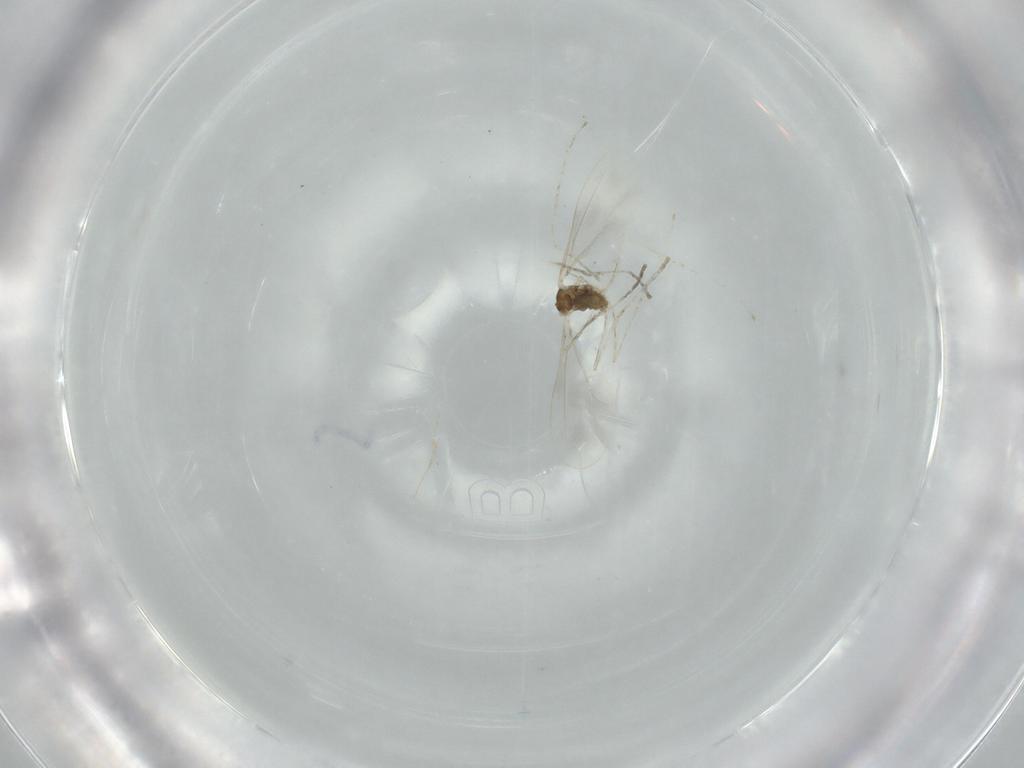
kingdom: Animalia
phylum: Arthropoda
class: Insecta
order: Diptera
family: Cecidomyiidae
